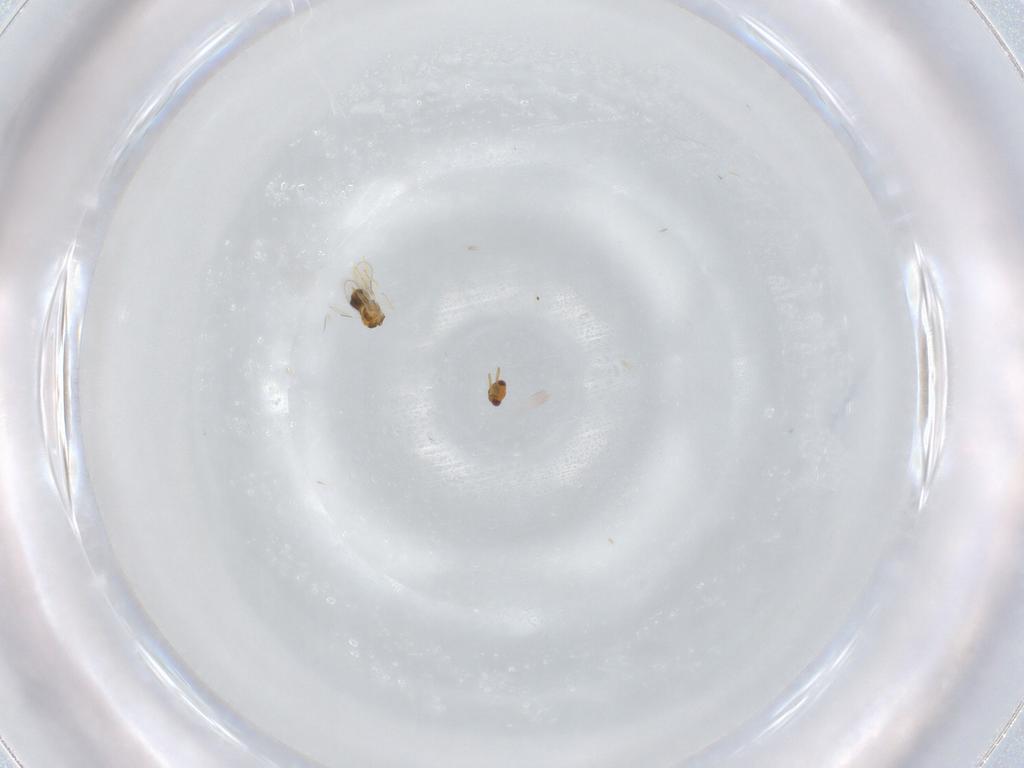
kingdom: Animalia
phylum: Arthropoda
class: Insecta
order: Hymenoptera
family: Aphelinidae
